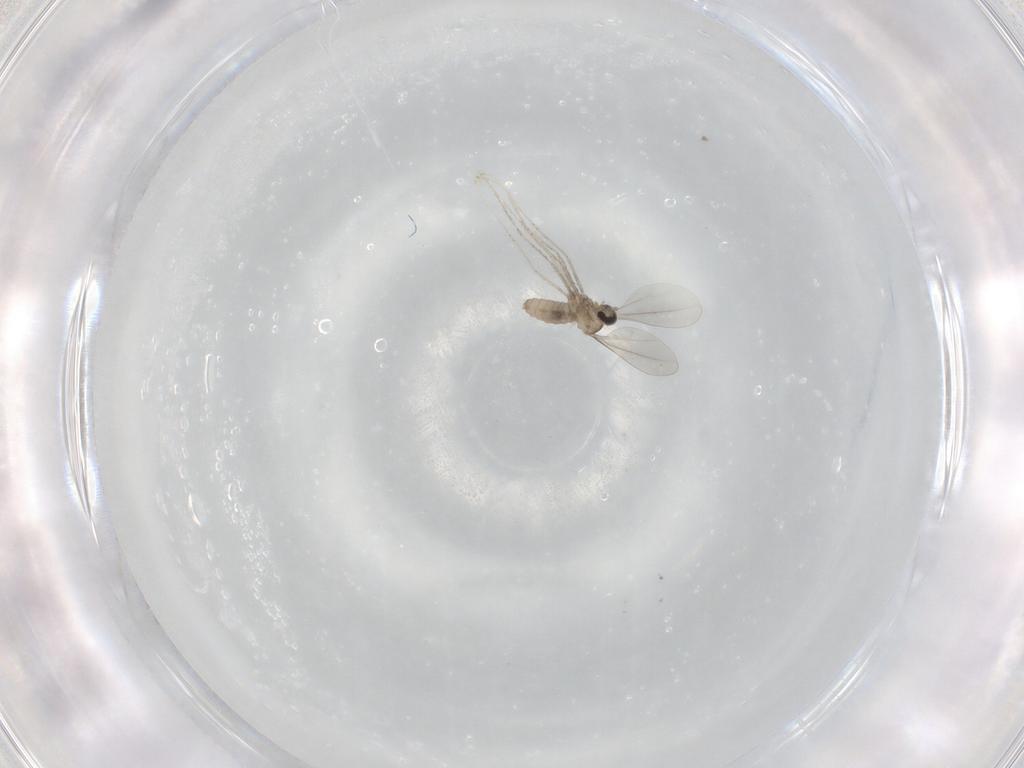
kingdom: Animalia
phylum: Arthropoda
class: Insecta
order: Diptera
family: Cecidomyiidae
